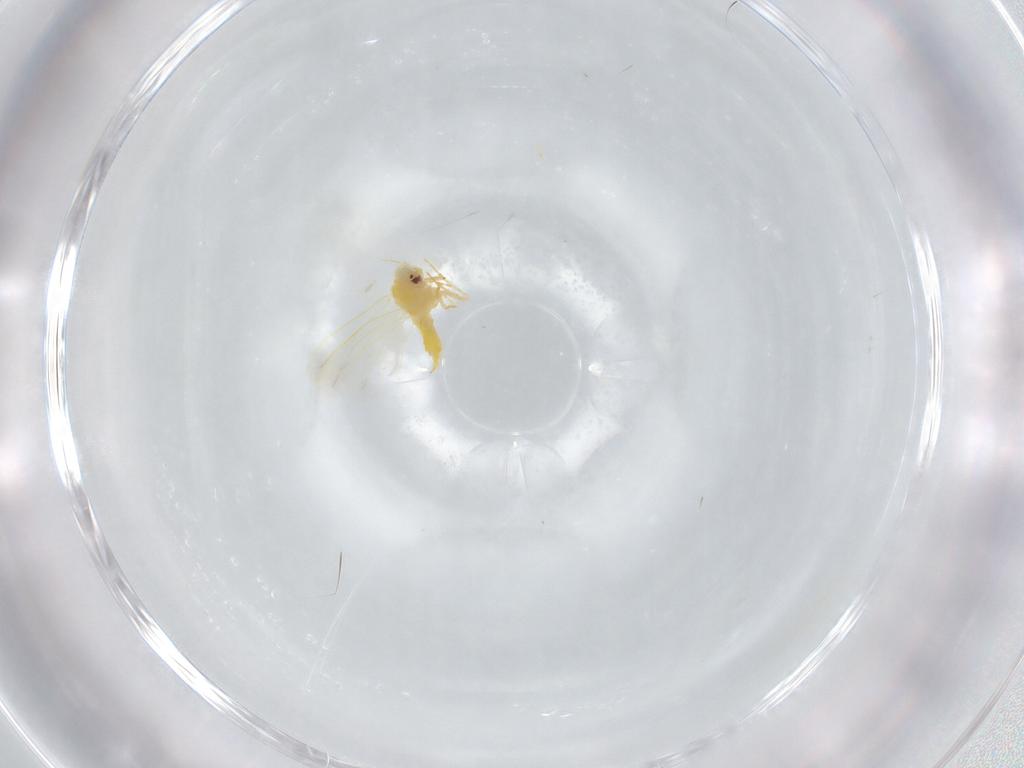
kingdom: Animalia
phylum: Arthropoda
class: Insecta
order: Hemiptera
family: Aleyrodidae
